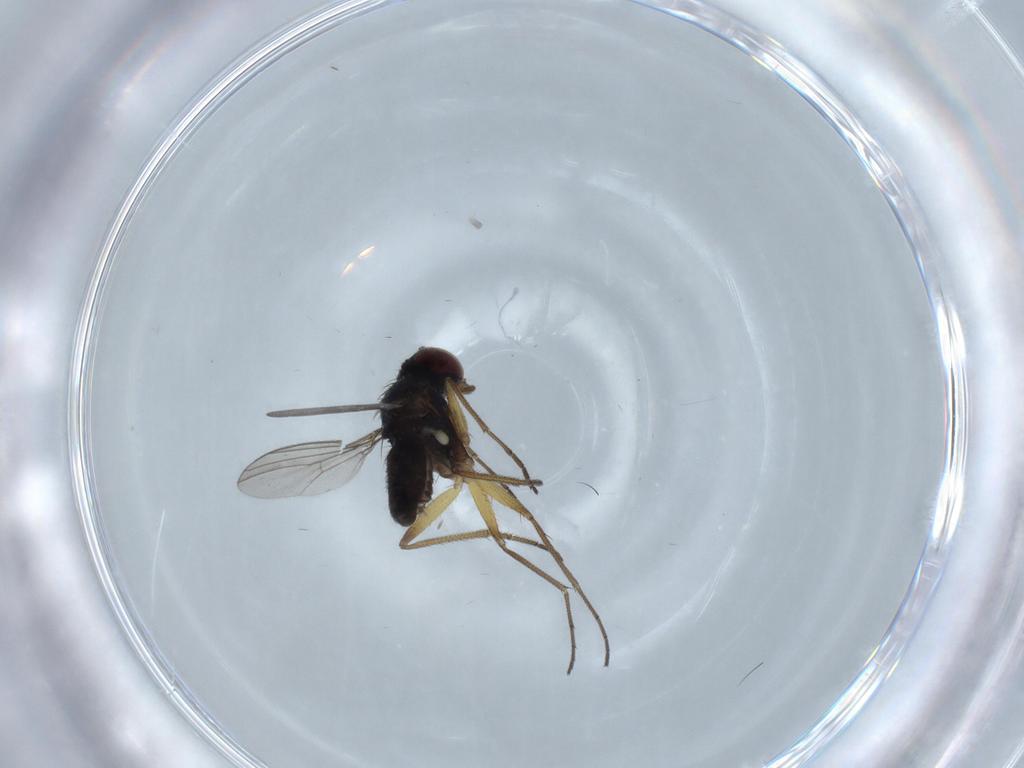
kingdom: Animalia
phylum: Arthropoda
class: Insecta
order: Diptera
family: Dolichopodidae
